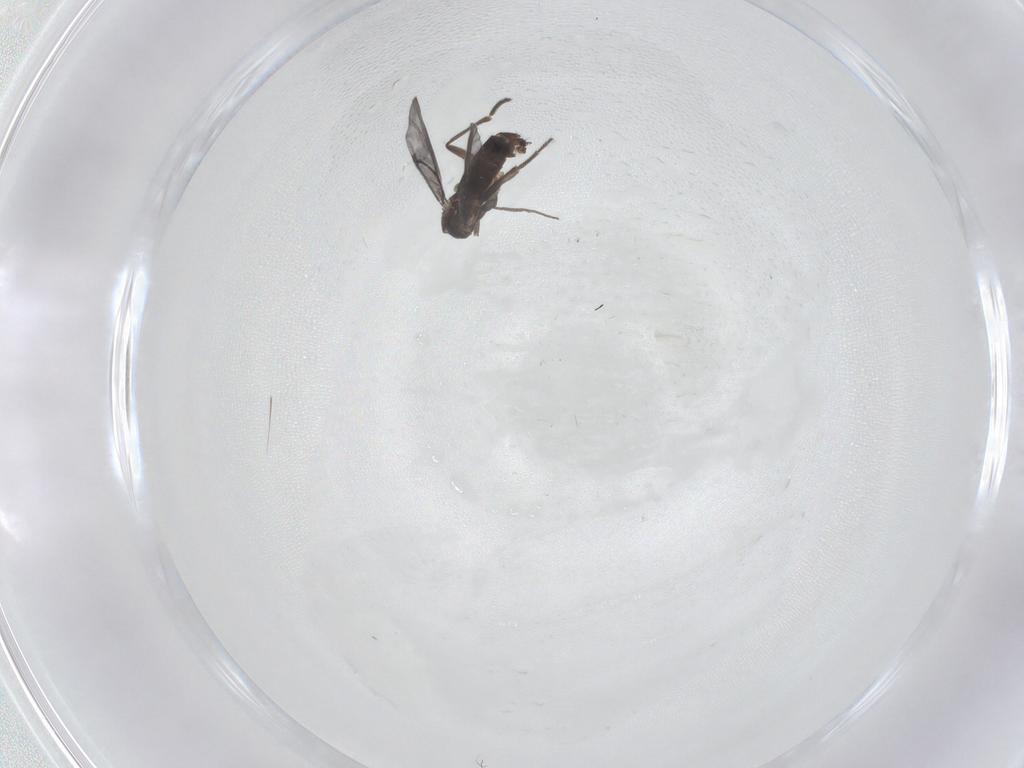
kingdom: Animalia
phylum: Arthropoda
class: Insecta
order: Diptera
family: Phoridae
